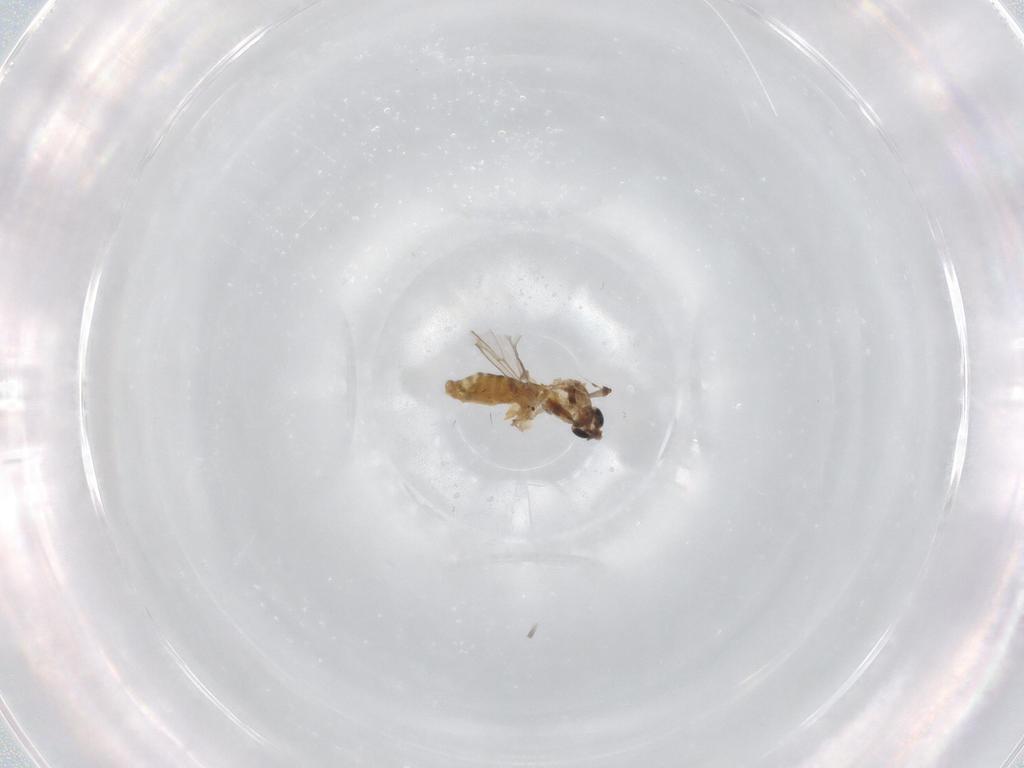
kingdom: Animalia
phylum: Arthropoda
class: Insecta
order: Diptera
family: Chironomidae
